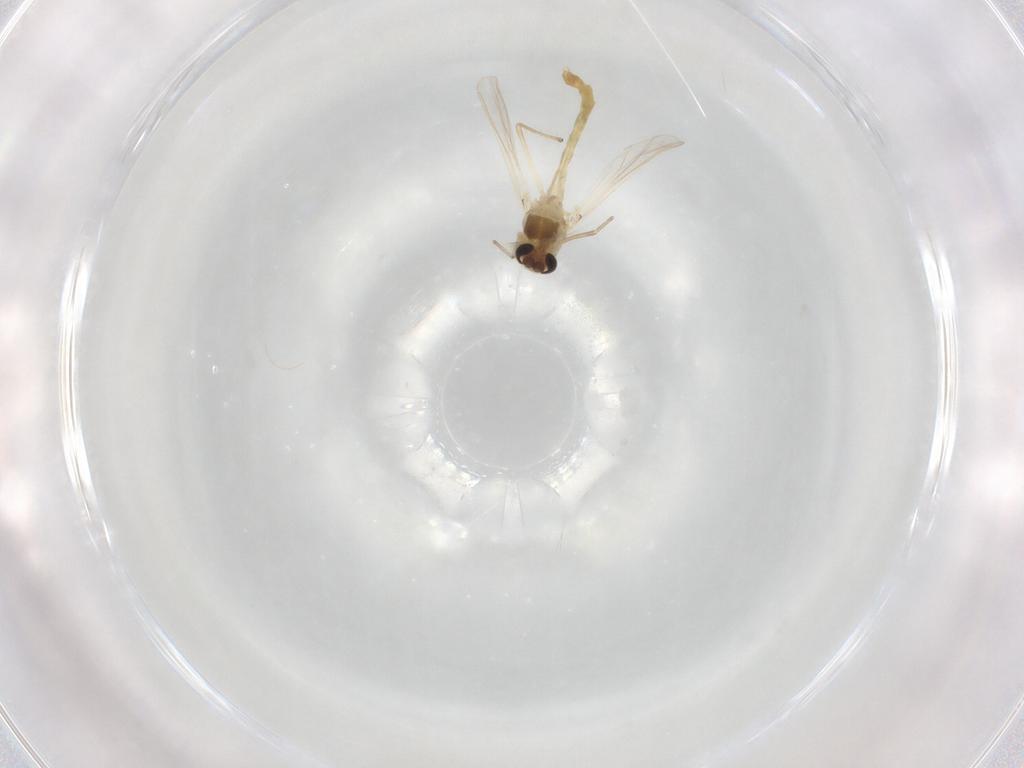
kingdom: Animalia
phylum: Arthropoda
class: Insecta
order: Diptera
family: Chironomidae
